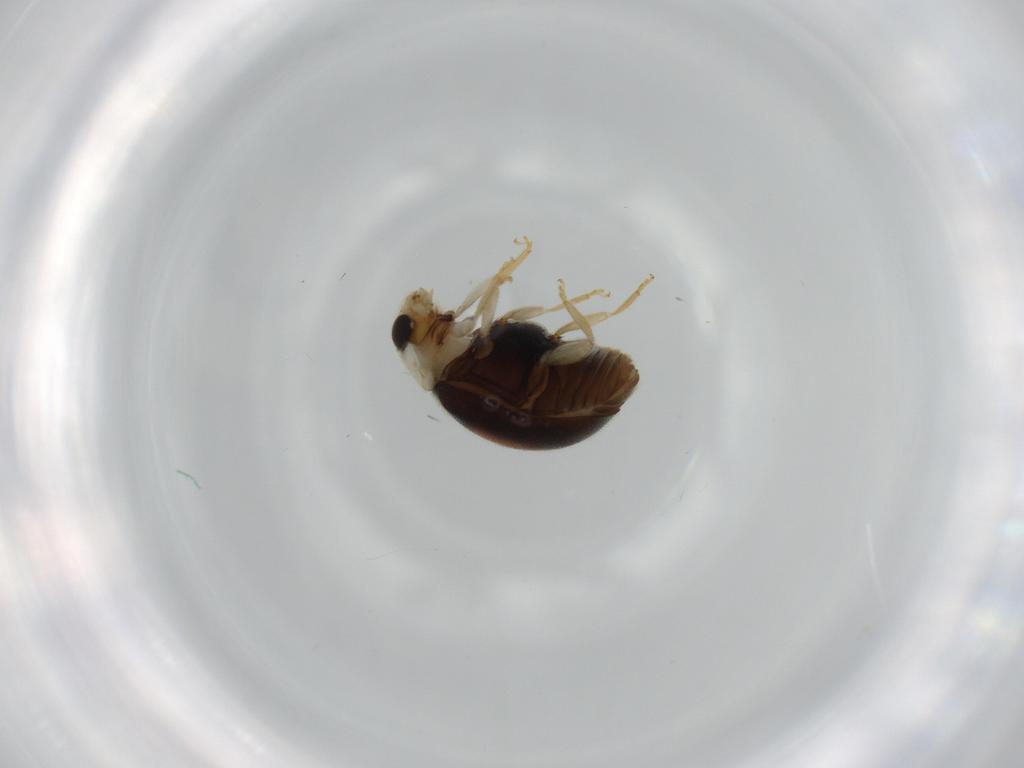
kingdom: Animalia
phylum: Arthropoda
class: Insecta
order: Coleoptera
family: Coccinellidae
